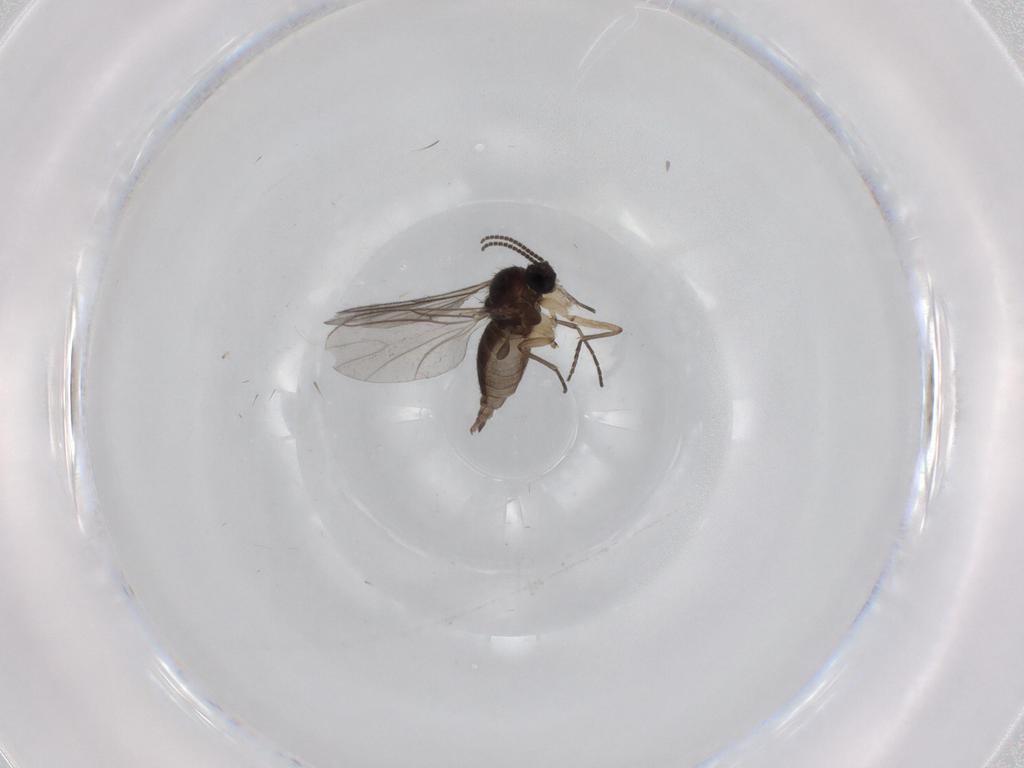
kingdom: Animalia
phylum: Arthropoda
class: Insecta
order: Diptera
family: Sciaridae
